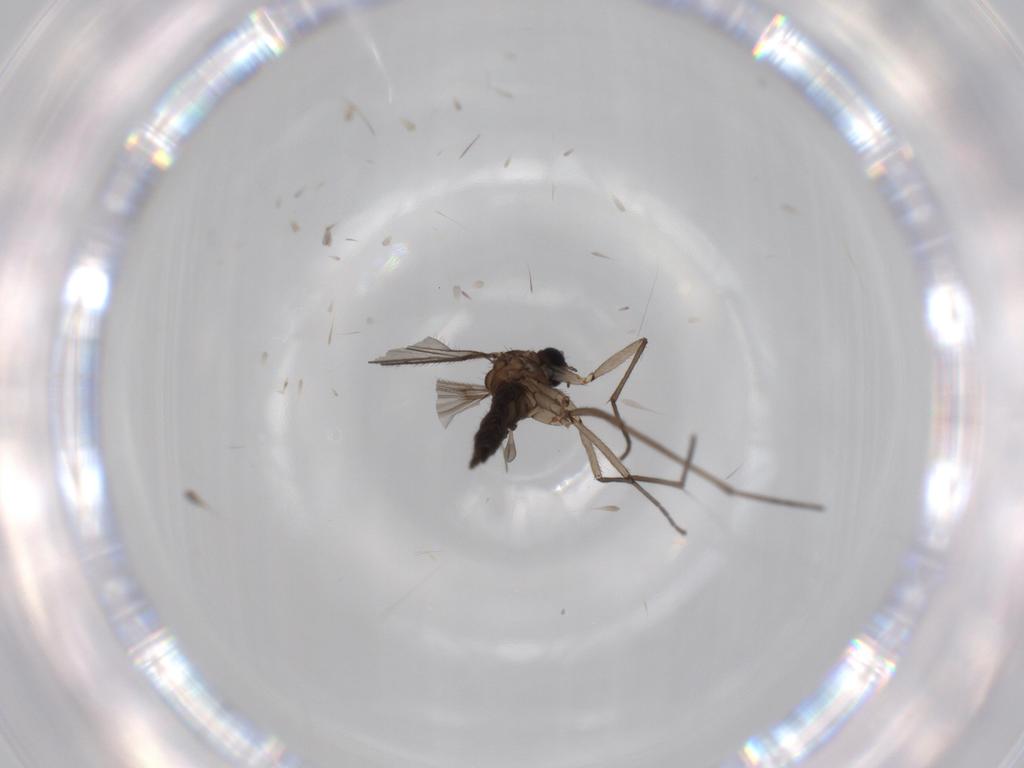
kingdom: Animalia
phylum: Arthropoda
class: Insecta
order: Diptera
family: Sciaridae
